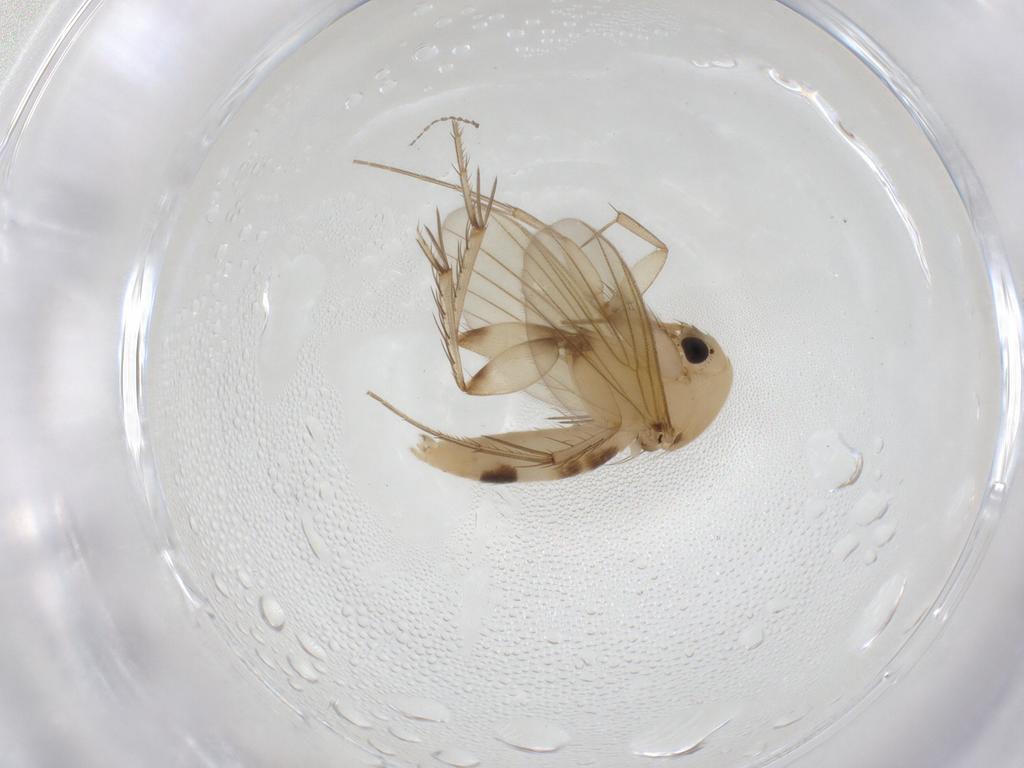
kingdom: Animalia
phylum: Arthropoda
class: Insecta
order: Diptera
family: Mycetophilidae
